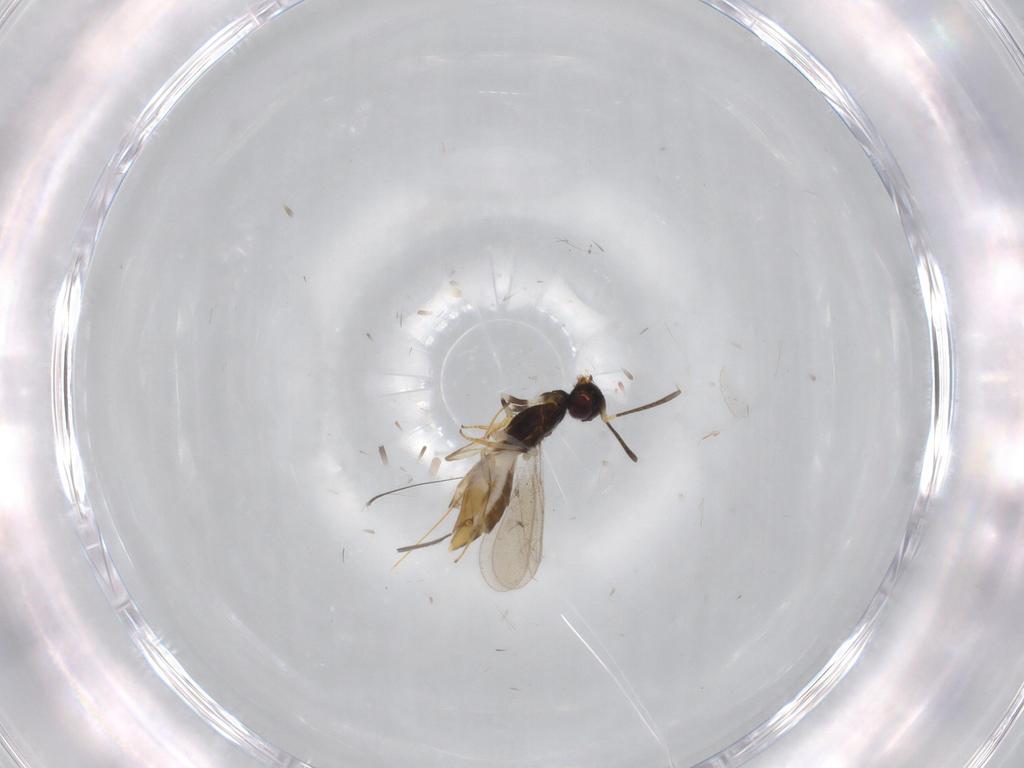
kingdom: Animalia
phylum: Arthropoda
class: Insecta
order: Hymenoptera
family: Eupelmidae
